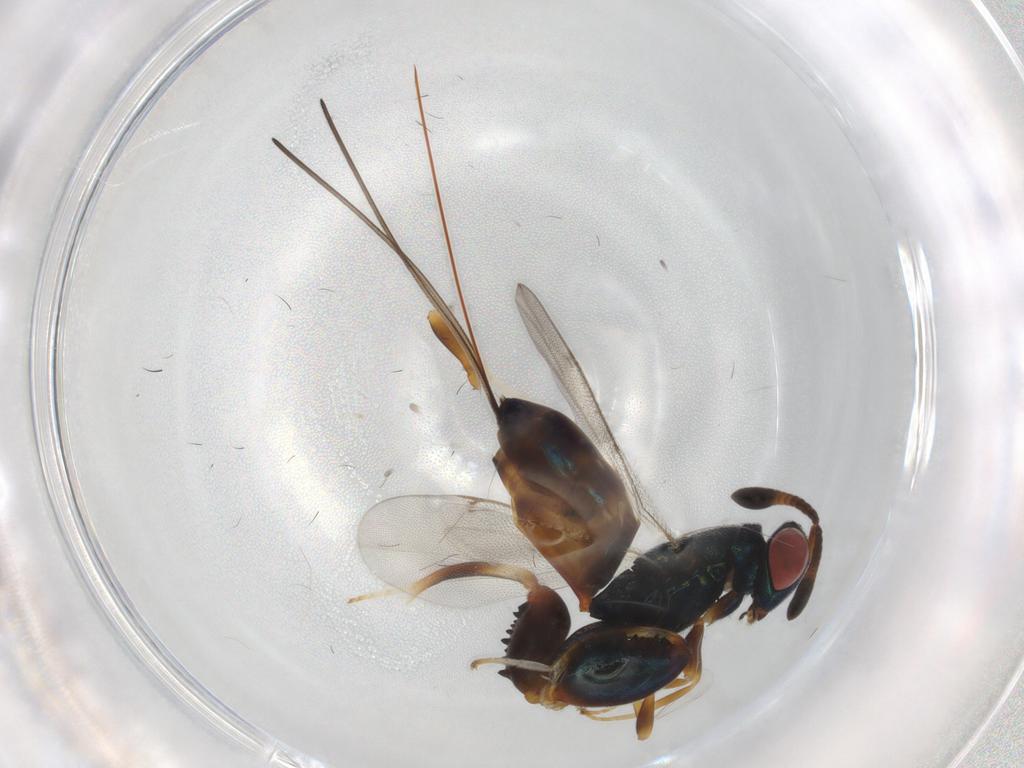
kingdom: Animalia
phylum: Arthropoda
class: Insecta
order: Hymenoptera
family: Torymidae
